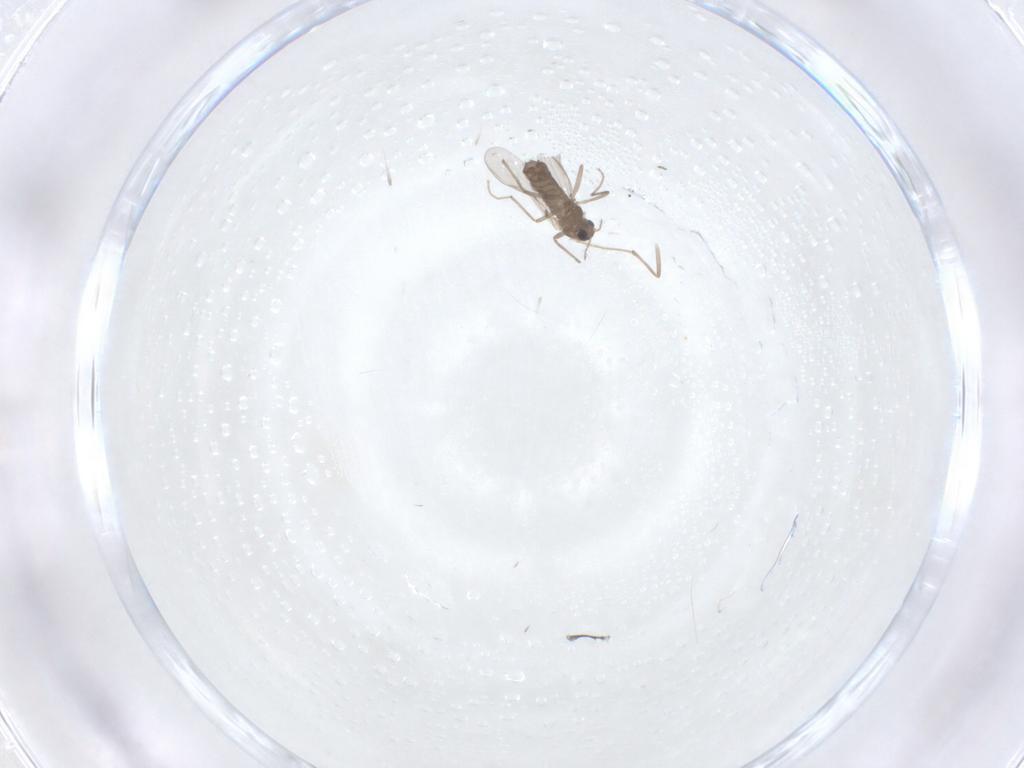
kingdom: Animalia
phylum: Arthropoda
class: Insecta
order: Diptera
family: Chironomidae
